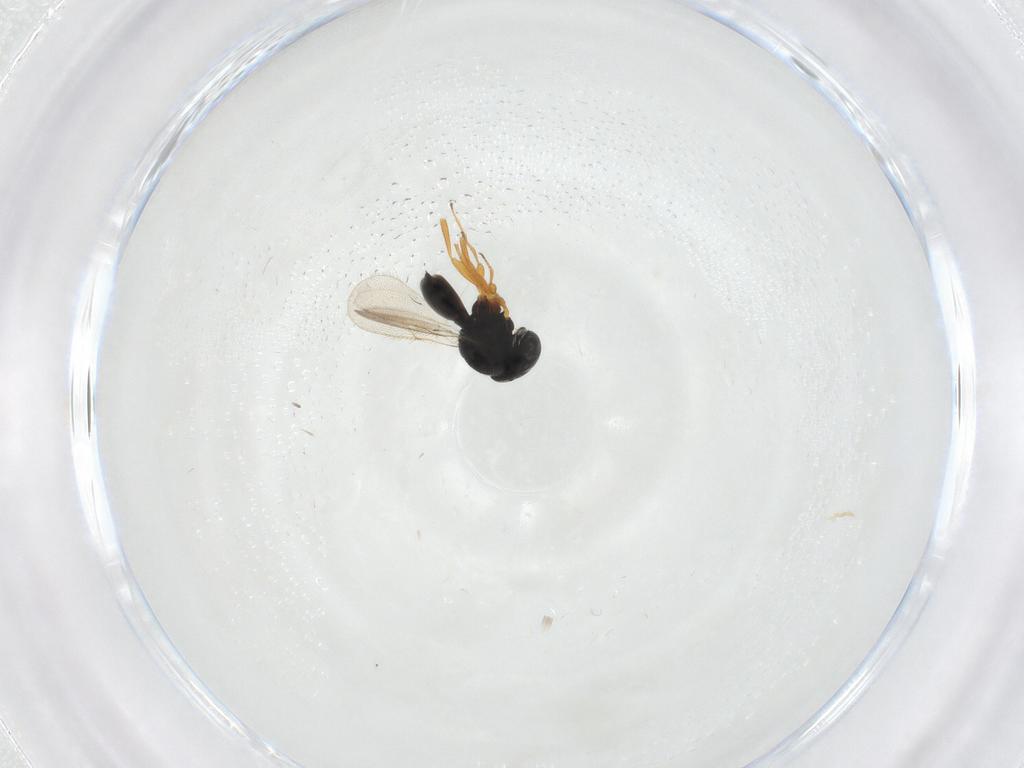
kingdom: Animalia
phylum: Arthropoda
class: Insecta
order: Hymenoptera
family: Scelionidae
